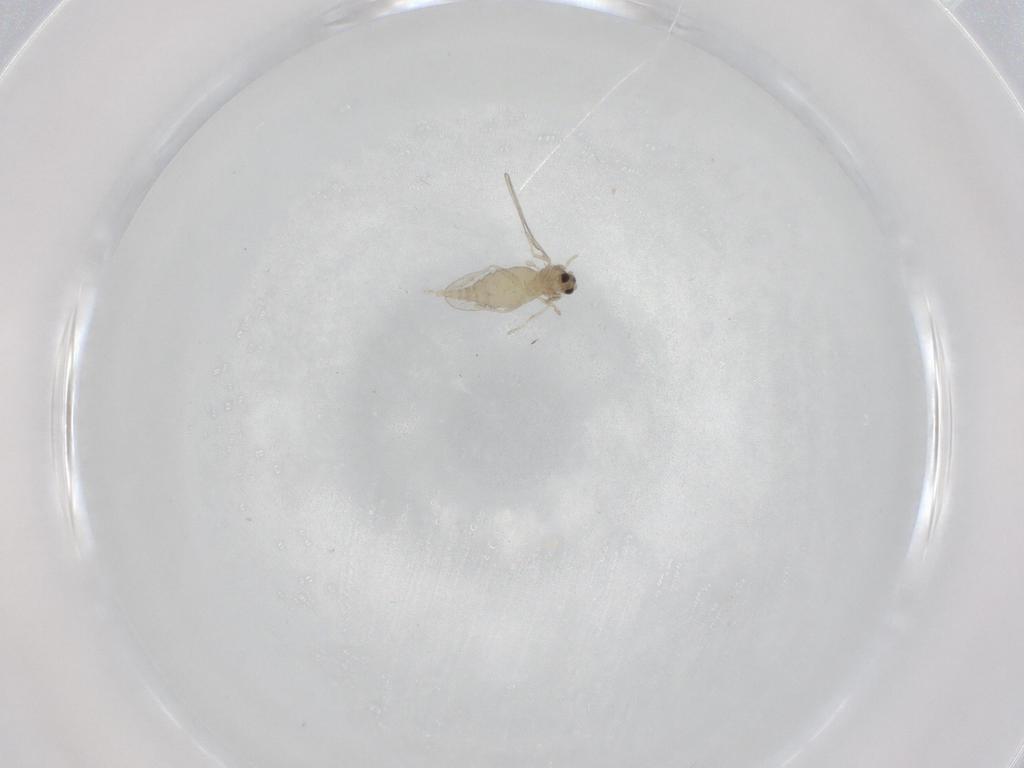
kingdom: Animalia
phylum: Arthropoda
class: Insecta
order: Diptera
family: Cecidomyiidae
